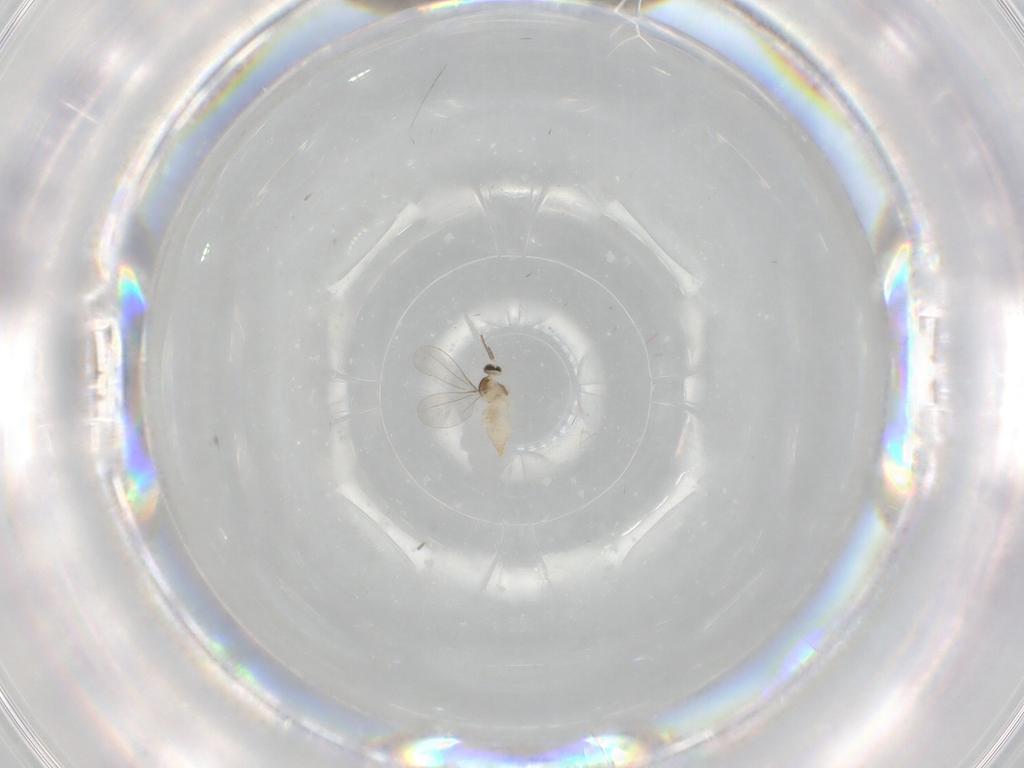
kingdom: Animalia
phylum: Arthropoda
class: Insecta
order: Diptera
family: Cecidomyiidae
